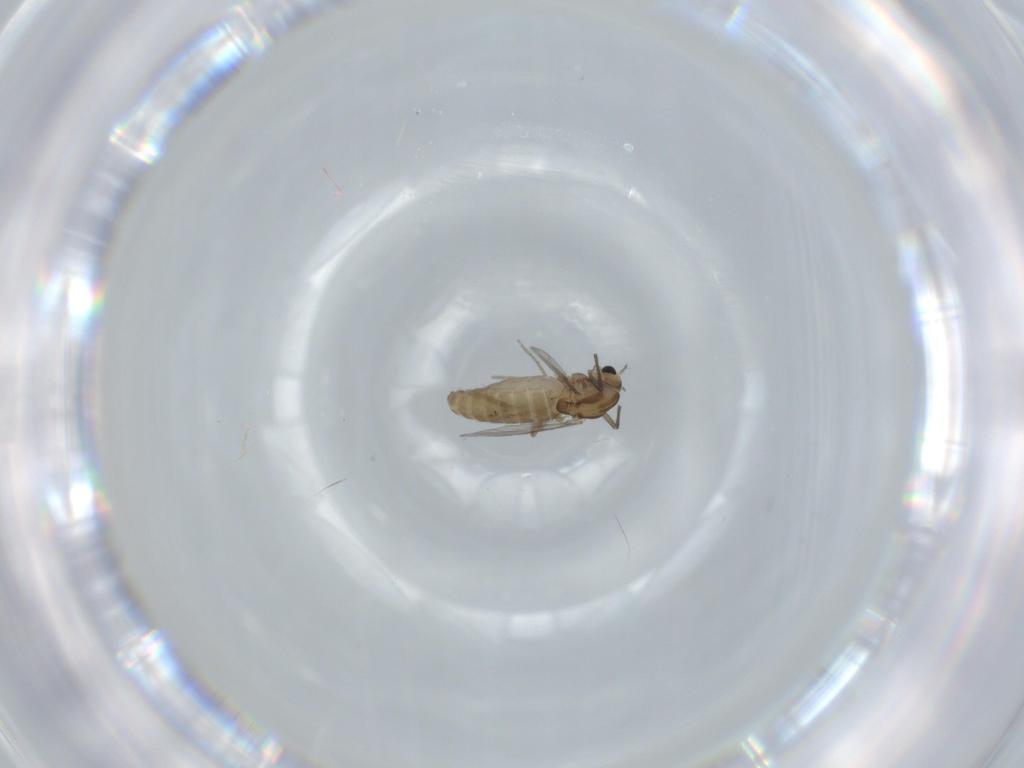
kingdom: Animalia
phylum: Arthropoda
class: Insecta
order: Diptera
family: Chironomidae
